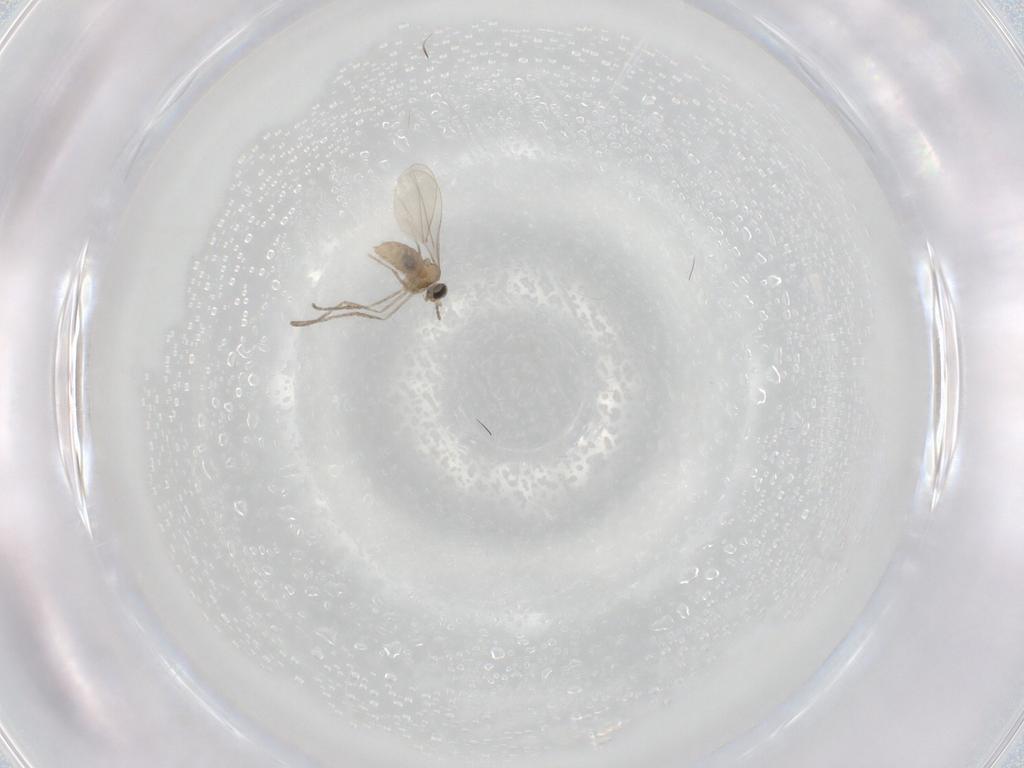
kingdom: Animalia
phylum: Arthropoda
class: Insecta
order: Diptera
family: Cecidomyiidae
